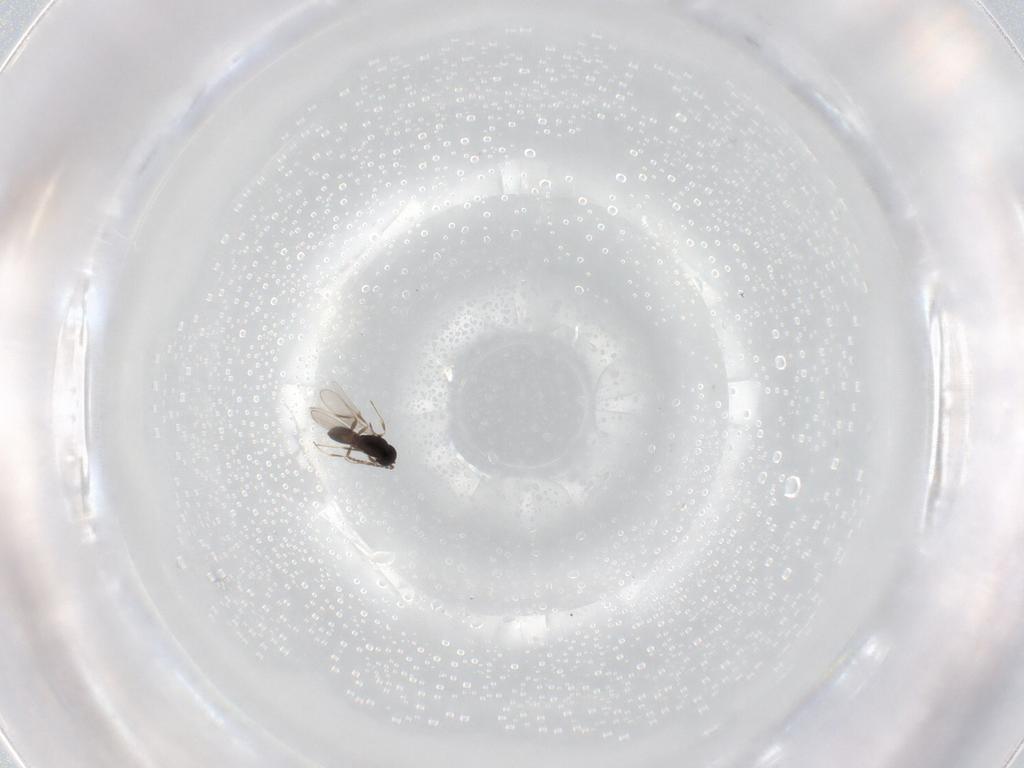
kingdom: Animalia
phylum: Arthropoda
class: Insecta
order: Hymenoptera
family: Scelionidae
